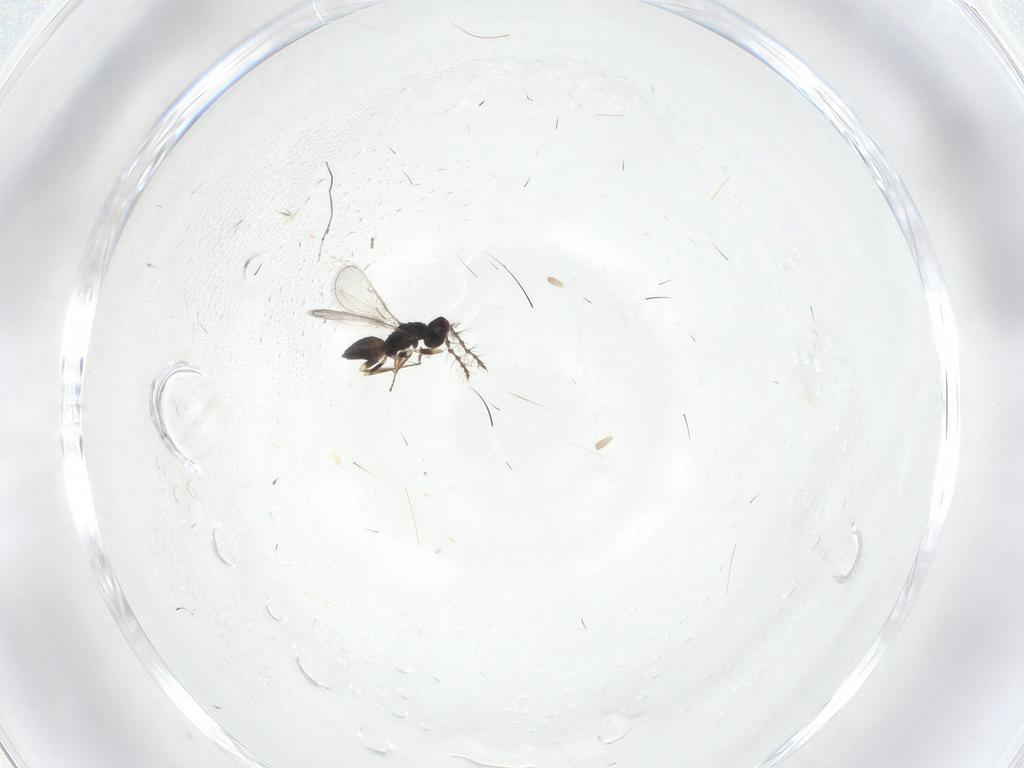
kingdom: Animalia
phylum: Arthropoda
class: Insecta
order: Hymenoptera
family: Eulophidae
